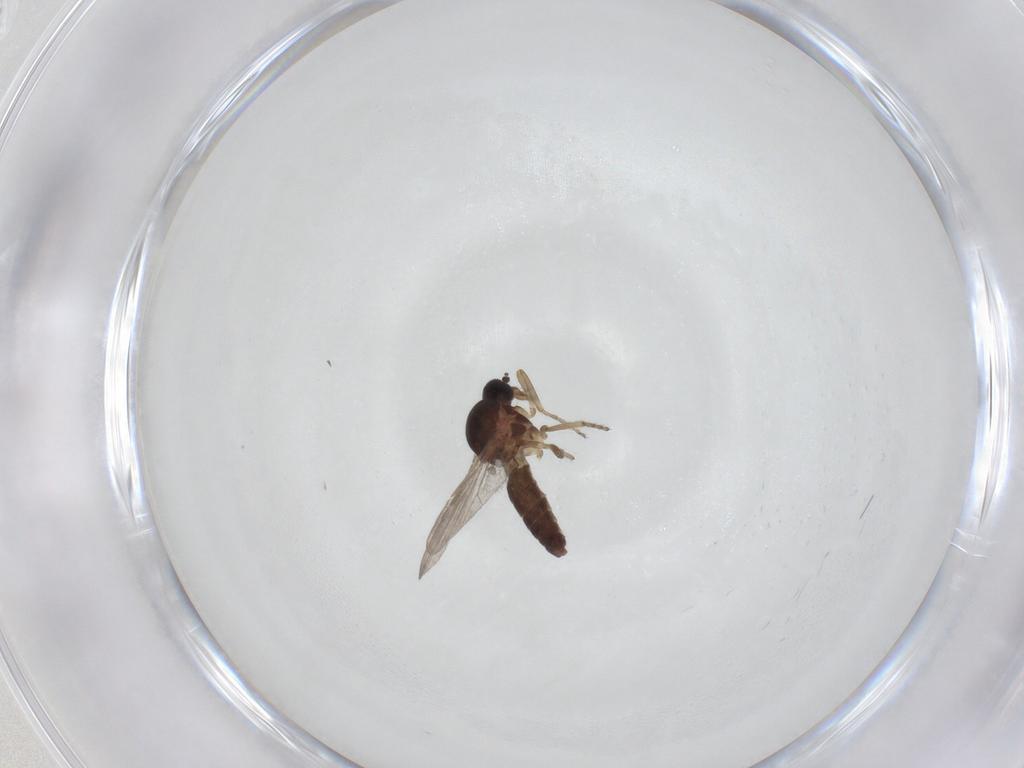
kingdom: Animalia
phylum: Arthropoda
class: Insecta
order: Diptera
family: Ceratopogonidae
